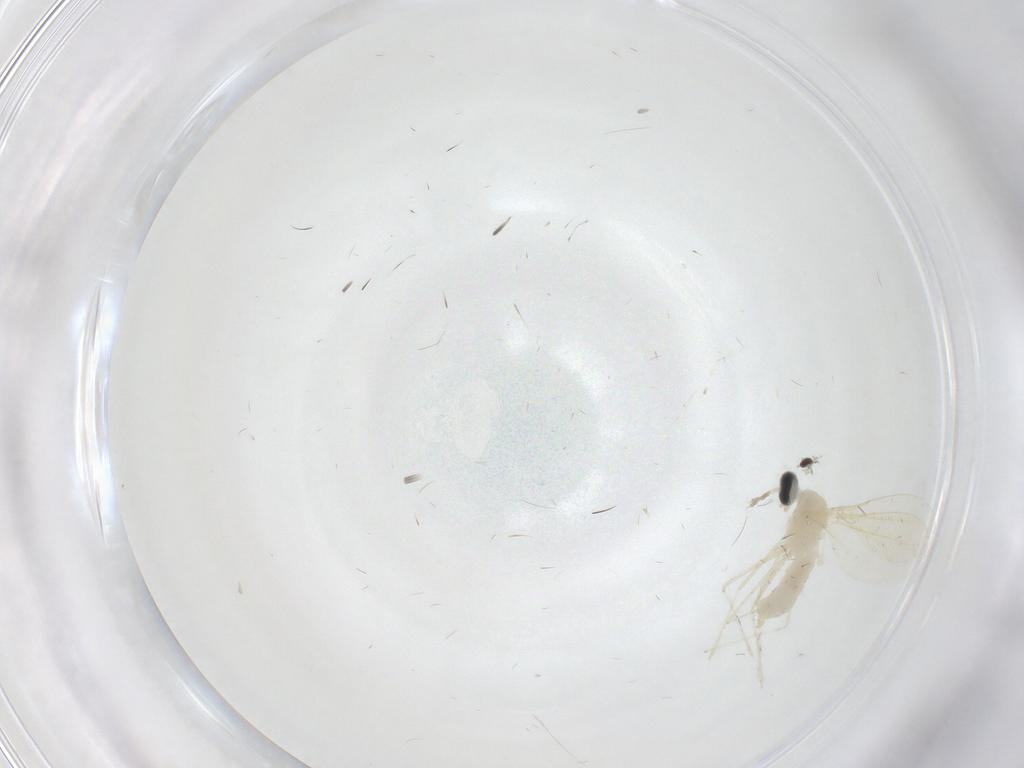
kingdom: Animalia
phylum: Arthropoda
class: Insecta
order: Diptera
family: Cecidomyiidae
